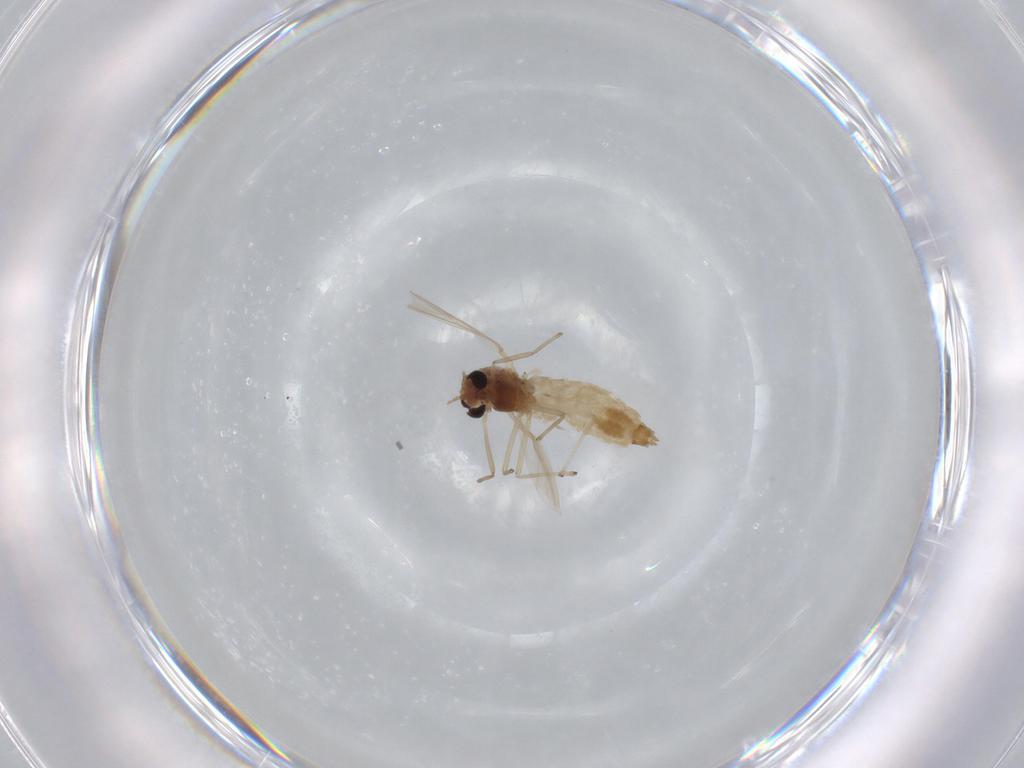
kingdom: Animalia
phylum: Arthropoda
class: Insecta
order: Diptera
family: Chironomidae
